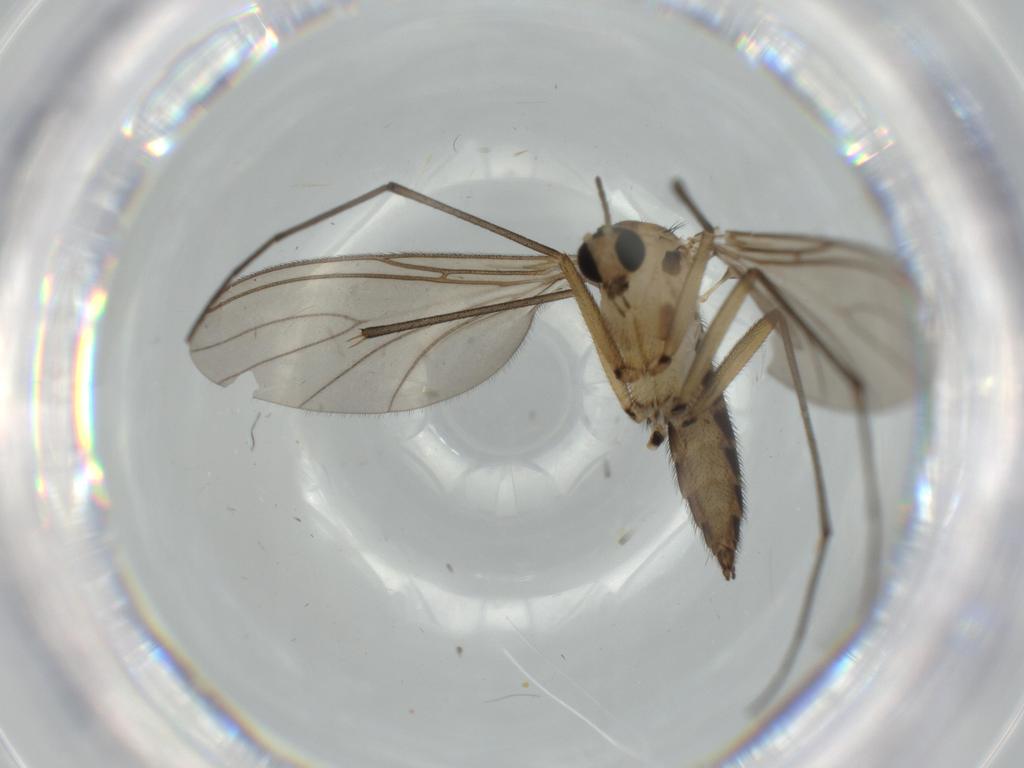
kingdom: Animalia
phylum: Arthropoda
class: Insecta
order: Diptera
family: Sciaridae
